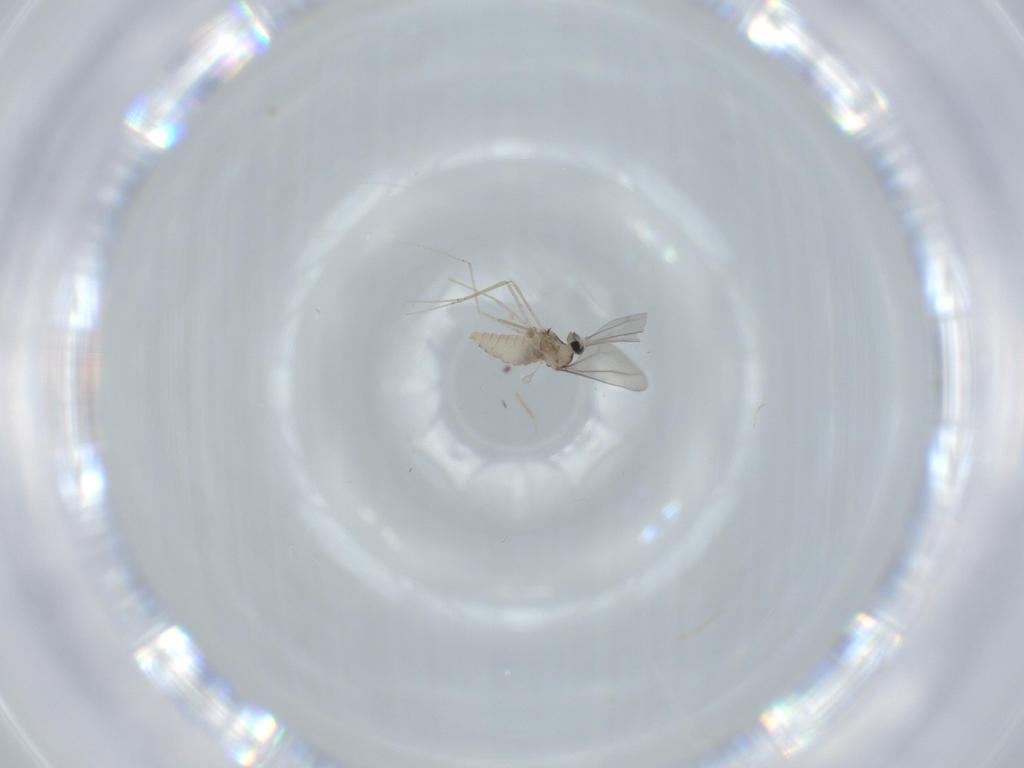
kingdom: Animalia
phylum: Arthropoda
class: Insecta
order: Diptera
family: Cecidomyiidae
